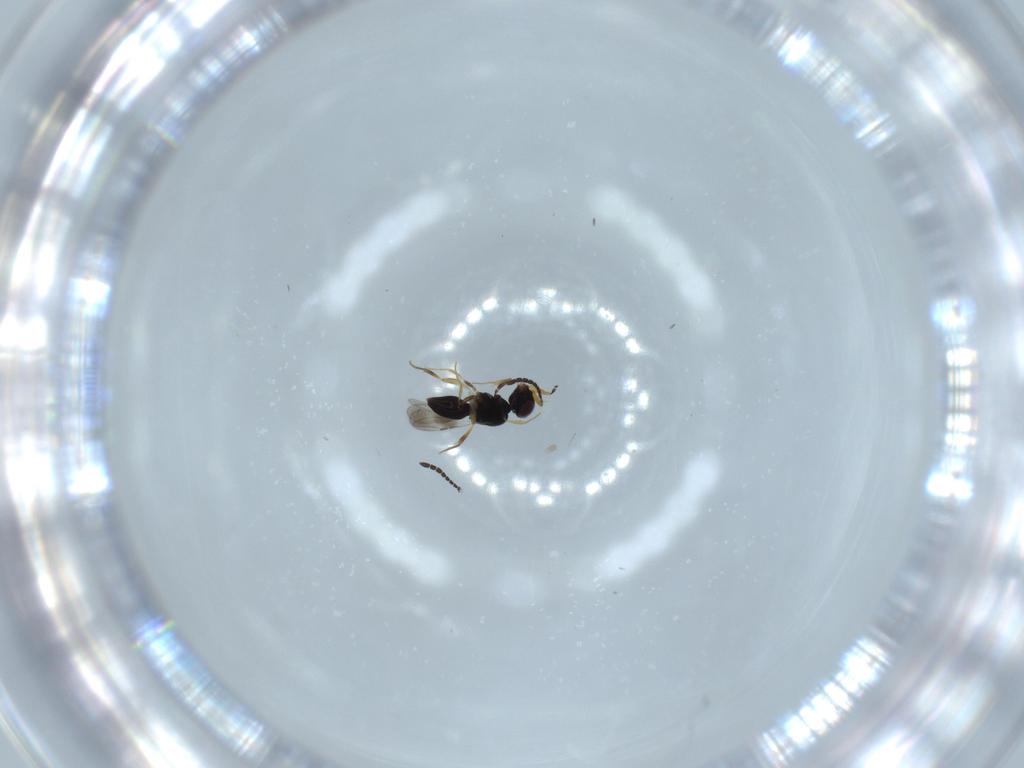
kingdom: Animalia
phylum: Arthropoda
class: Insecta
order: Hymenoptera
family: Ceraphronidae
